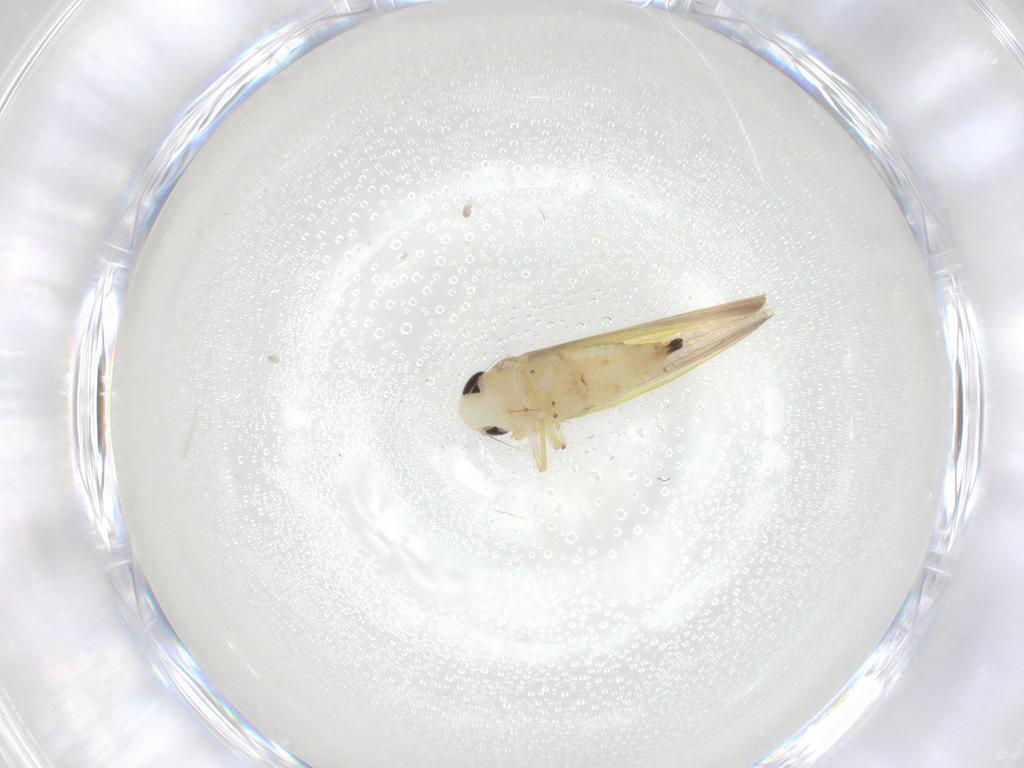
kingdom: Animalia
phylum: Arthropoda
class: Insecta
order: Hemiptera
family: Cicadellidae
